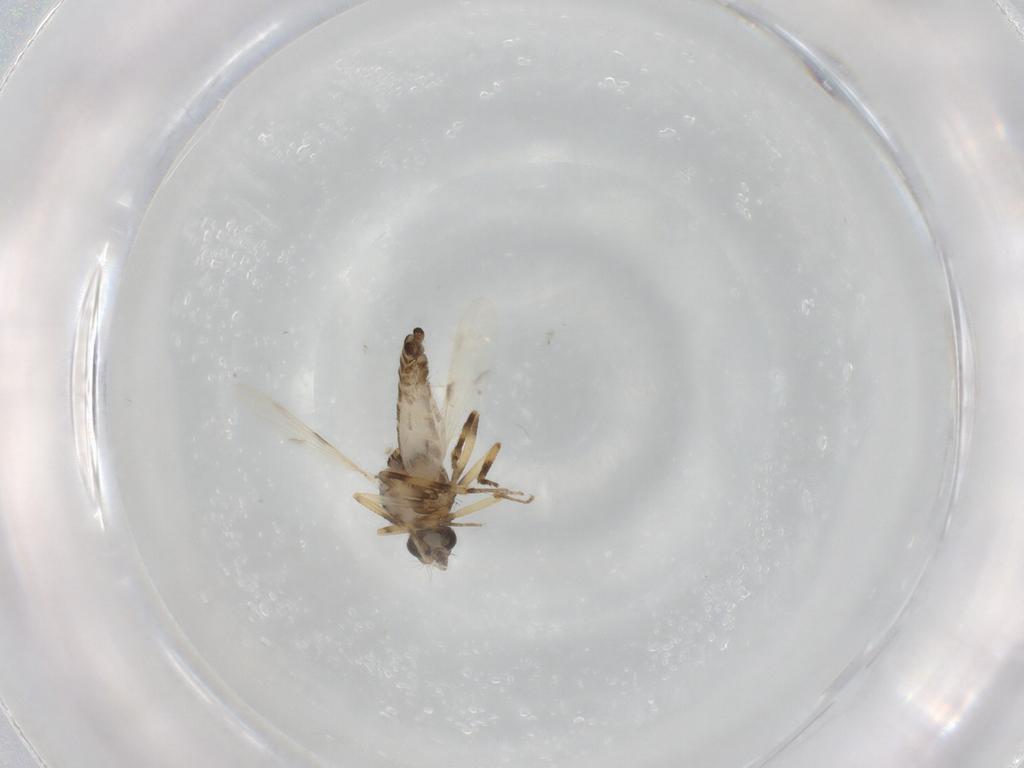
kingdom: Animalia
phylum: Arthropoda
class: Insecta
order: Diptera
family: Ceratopogonidae
